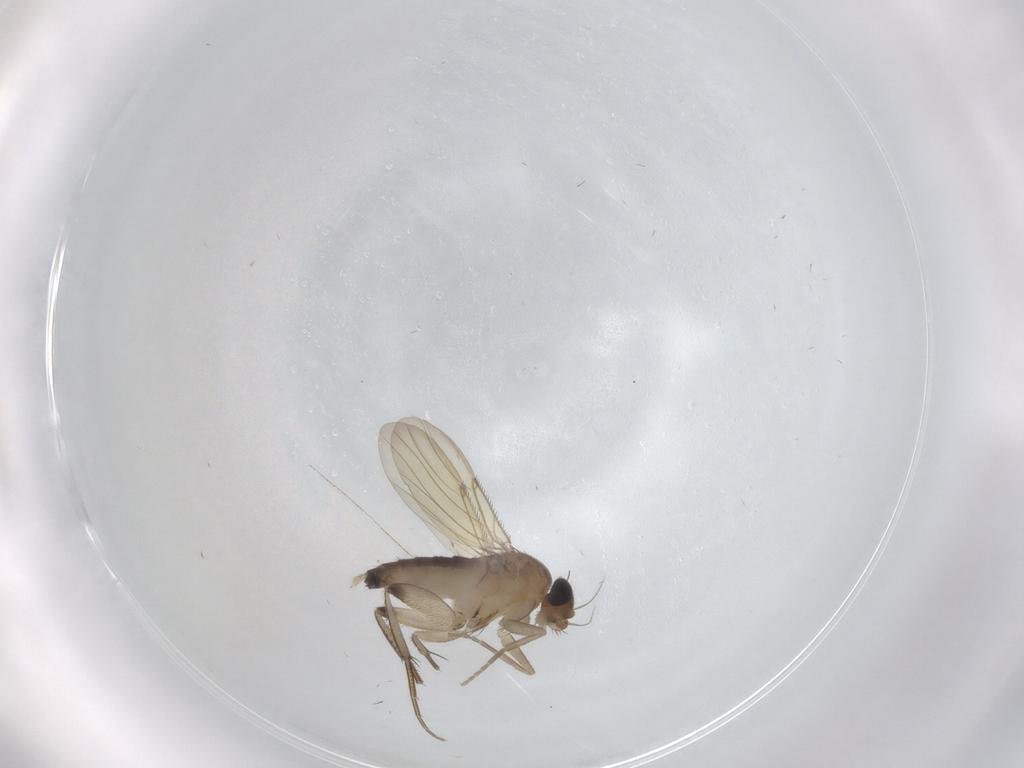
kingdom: Animalia
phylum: Arthropoda
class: Insecta
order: Diptera
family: Phoridae
